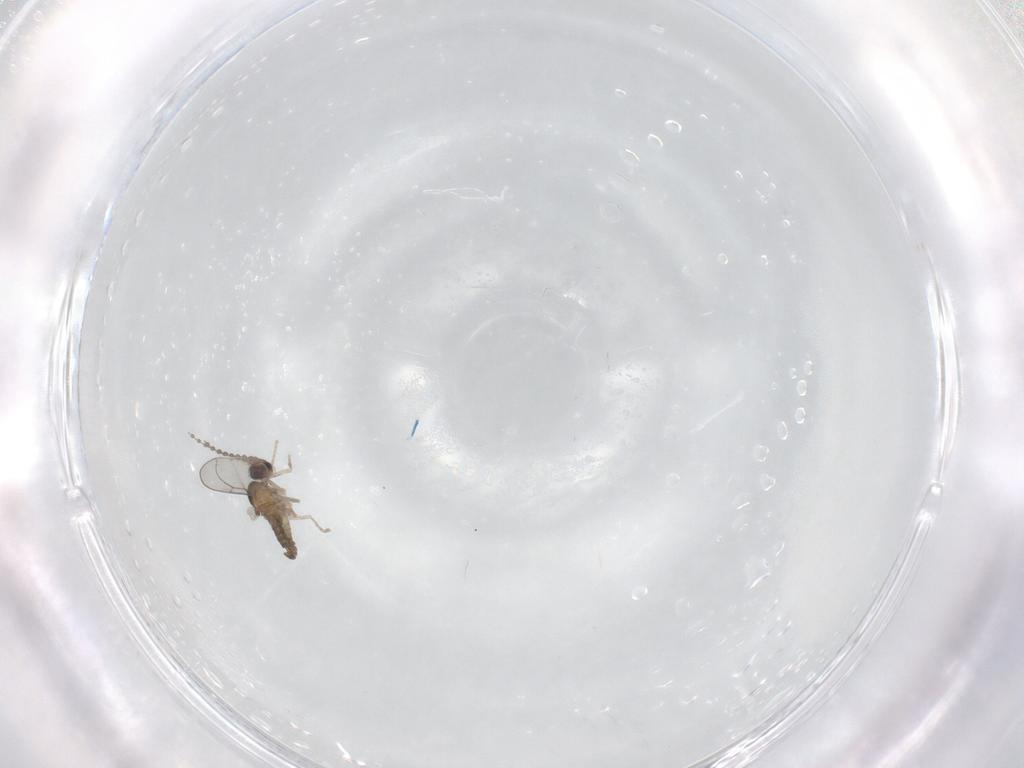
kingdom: Animalia
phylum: Arthropoda
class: Insecta
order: Diptera
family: Cecidomyiidae
